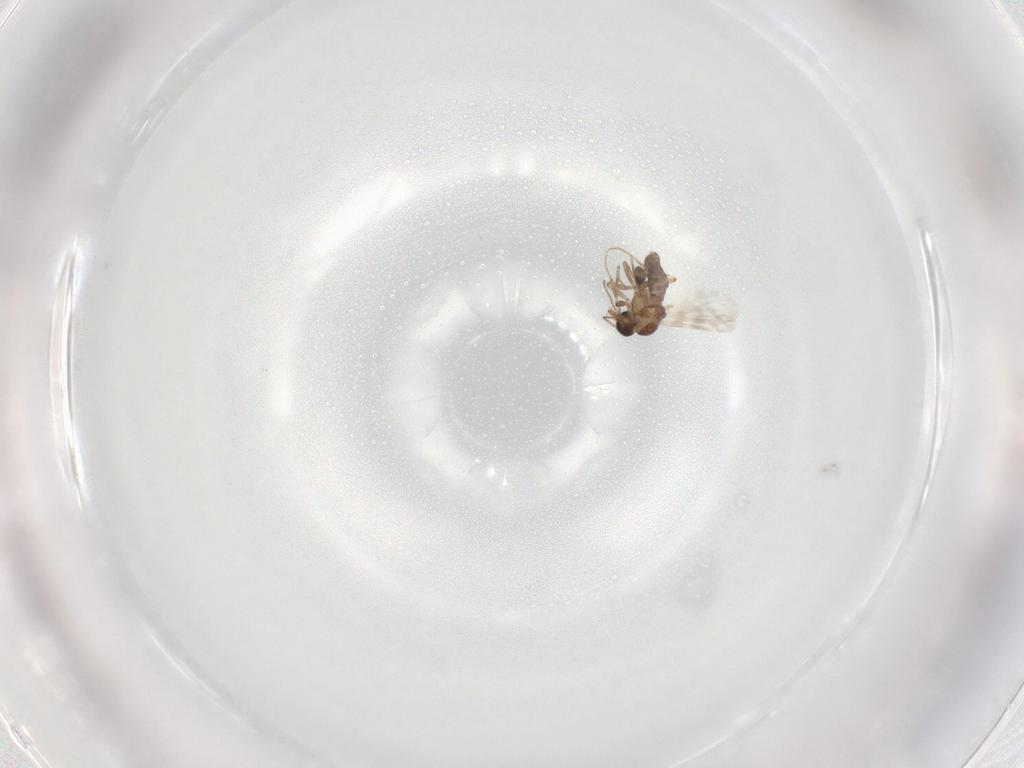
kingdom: Animalia
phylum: Arthropoda
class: Insecta
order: Diptera
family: Ceratopogonidae
